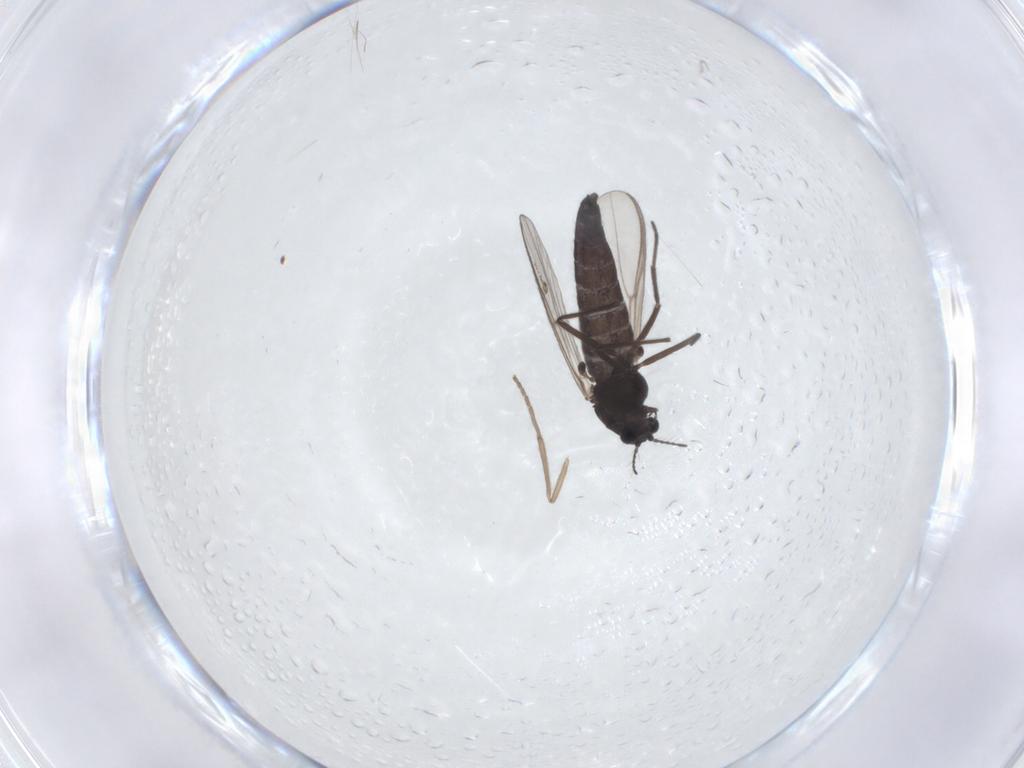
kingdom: Animalia
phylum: Arthropoda
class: Insecta
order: Diptera
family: Chironomidae
